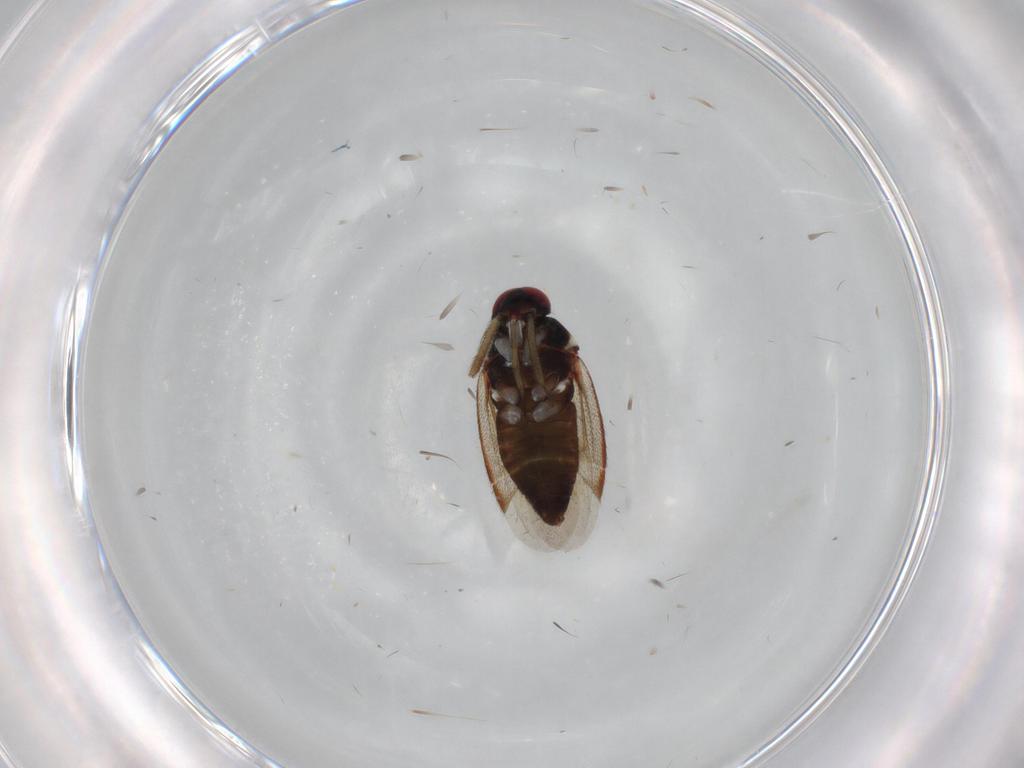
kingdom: Animalia
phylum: Arthropoda
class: Insecta
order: Hemiptera
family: Miridae
